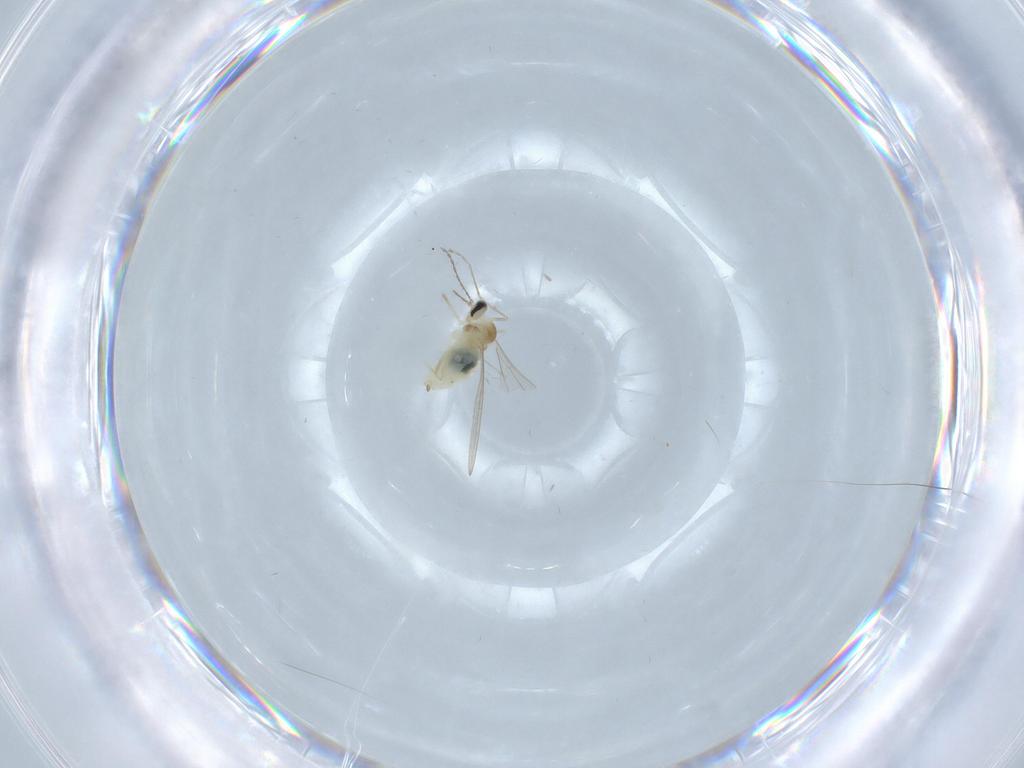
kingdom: Animalia
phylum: Arthropoda
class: Insecta
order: Diptera
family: Cecidomyiidae
